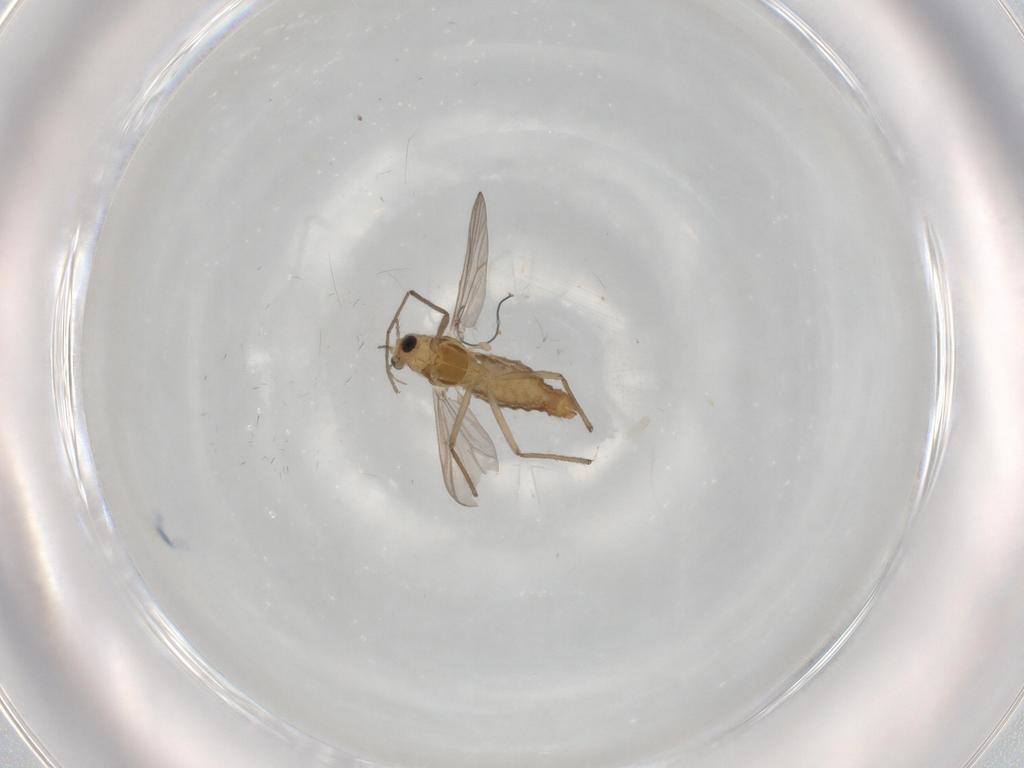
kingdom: Animalia
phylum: Arthropoda
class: Insecta
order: Diptera
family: Chironomidae
